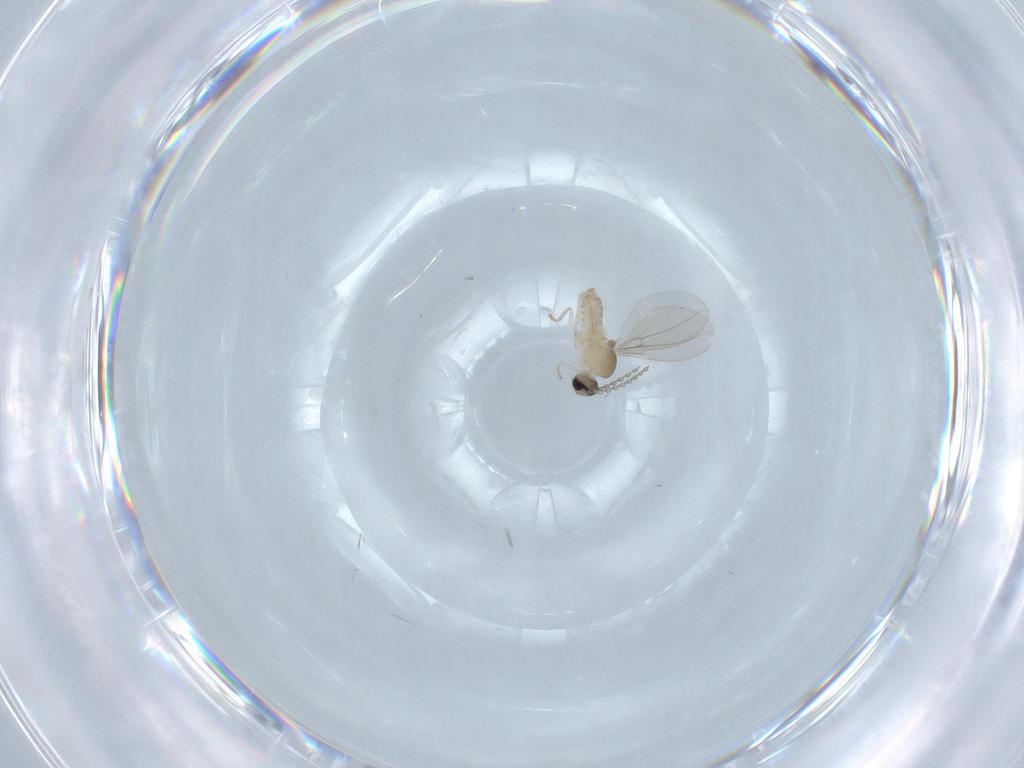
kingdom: Animalia
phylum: Arthropoda
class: Insecta
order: Diptera
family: Cecidomyiidae
